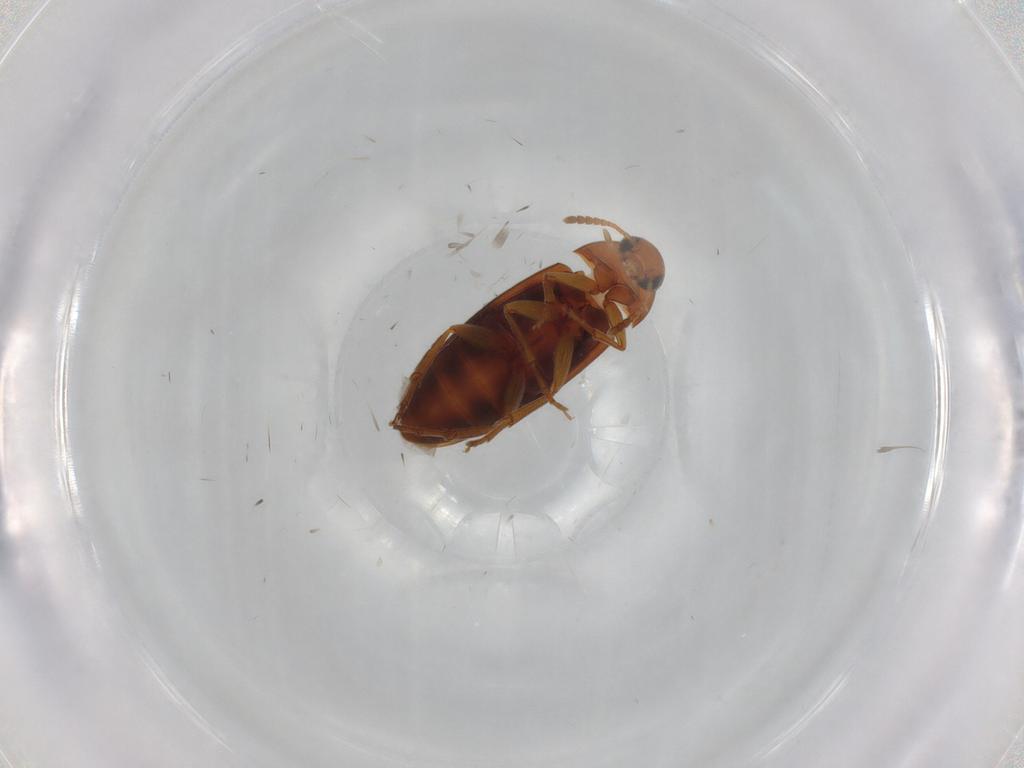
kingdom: Animalia
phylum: Arthropoda
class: Insecta
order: Coleoptera
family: Scraptiidae
